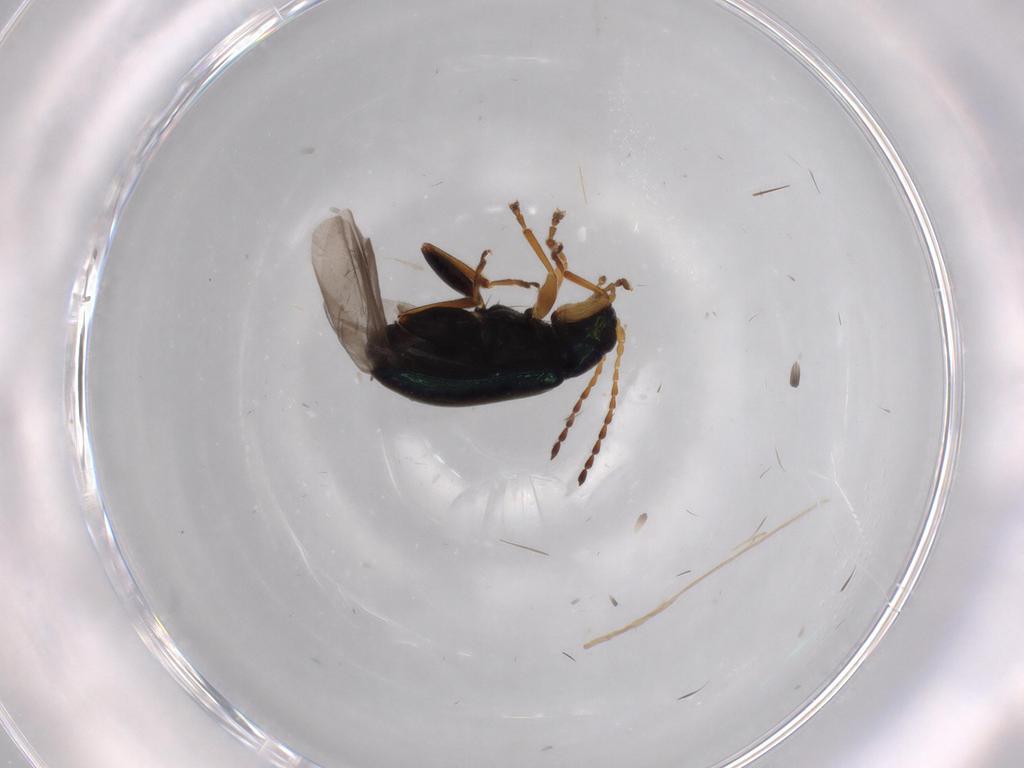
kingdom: Animalia
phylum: Arthropoda
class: Insecta
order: Coleoptera
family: Chrysomelidae
